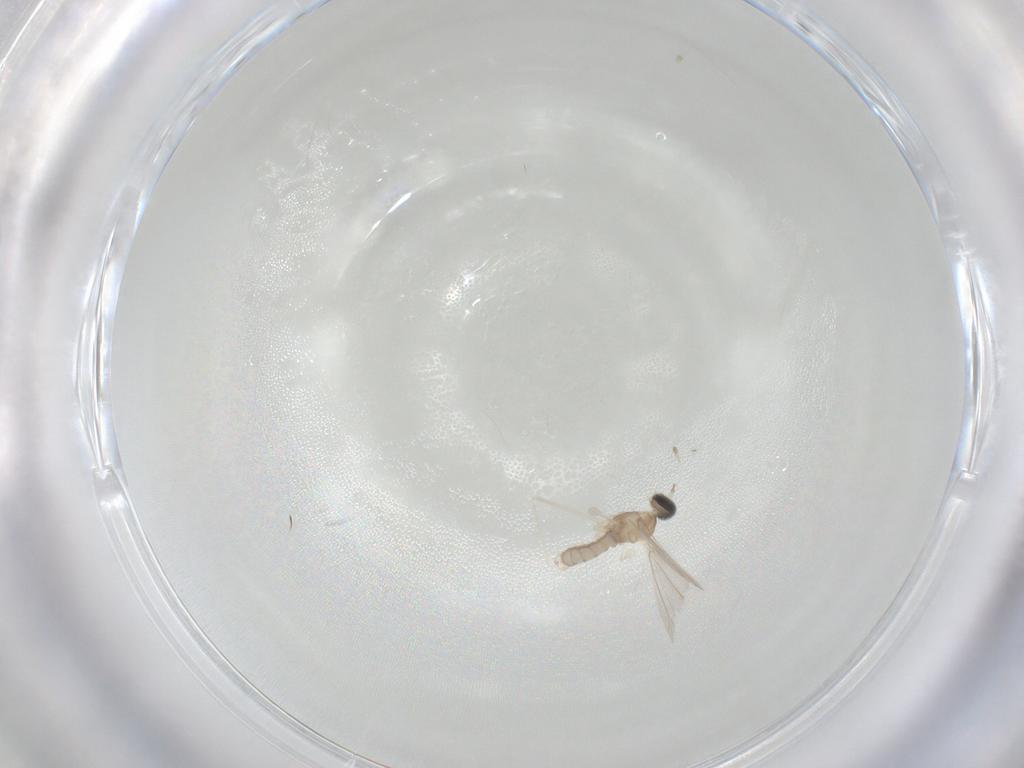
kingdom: Animalia
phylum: Arthropoda
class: Insecta
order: Diptera
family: Cecidomyiidae
